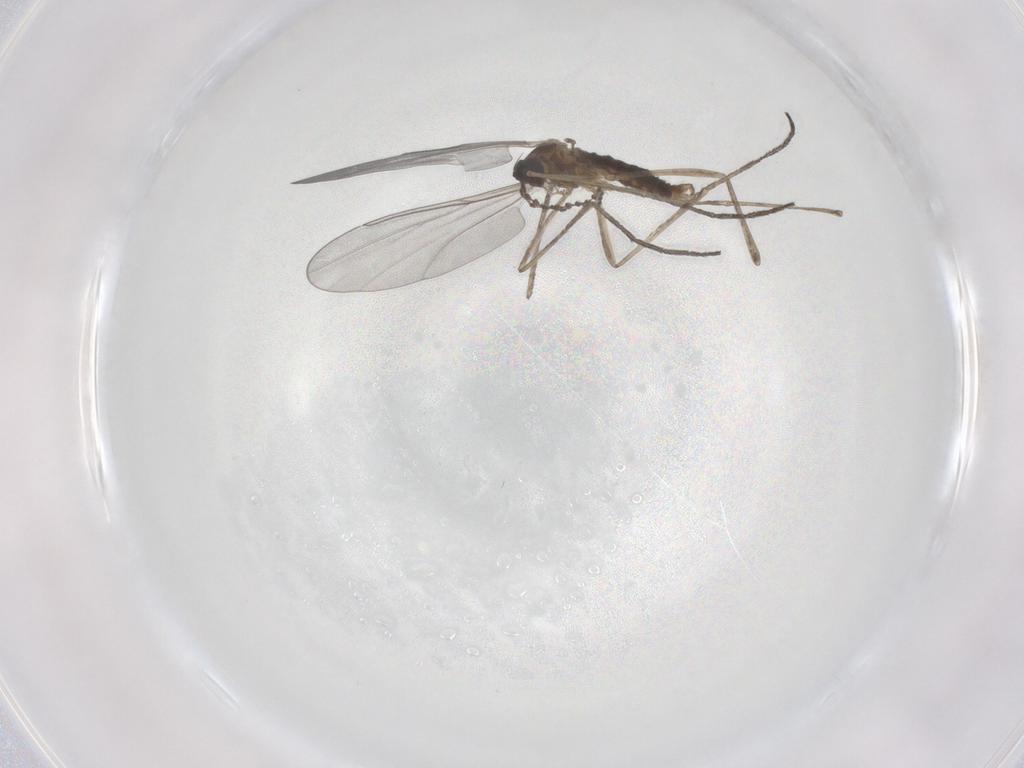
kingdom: Animalia
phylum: Arthropoda
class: Insecta
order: Diptera
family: Cecidomyiidae
